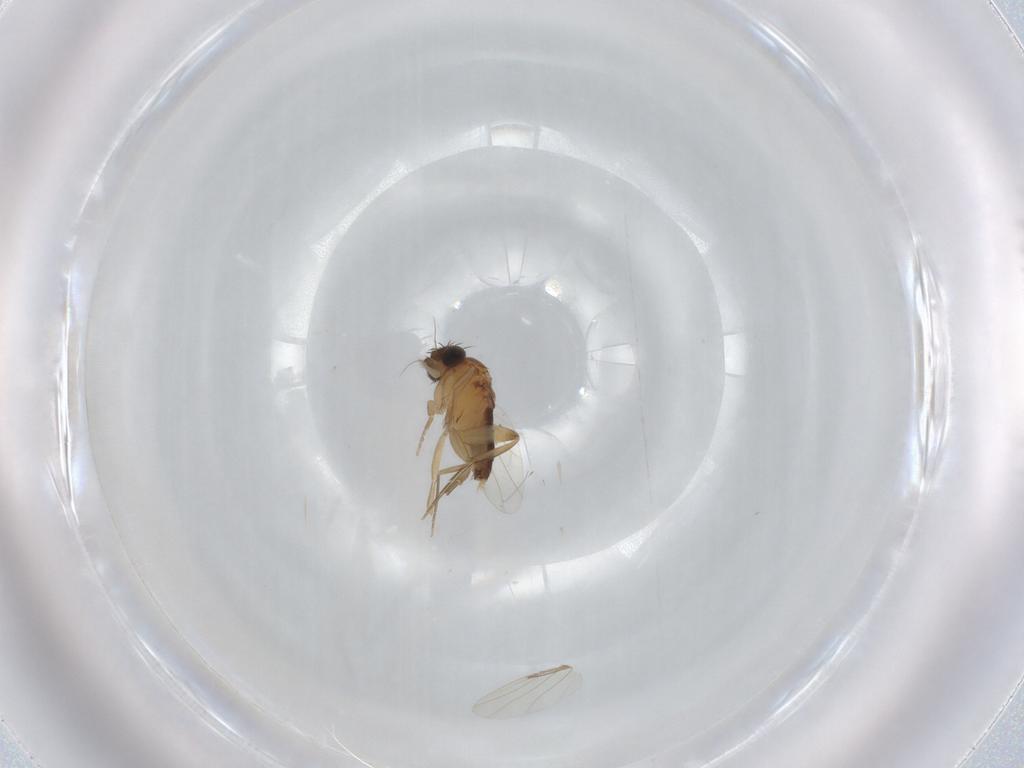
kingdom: Animalia
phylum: Arthropoda
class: Insecta
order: Diptera
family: Phoridae
